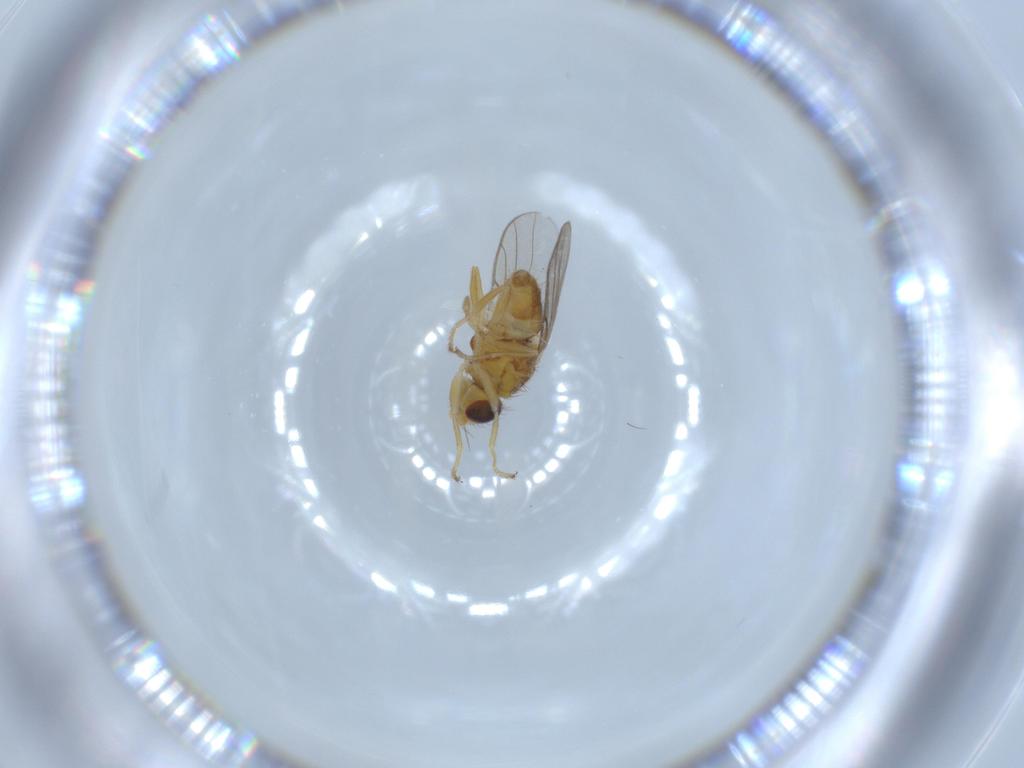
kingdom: Animalia
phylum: Arthropoda
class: Insecta
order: Diptera
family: Chloropidae
